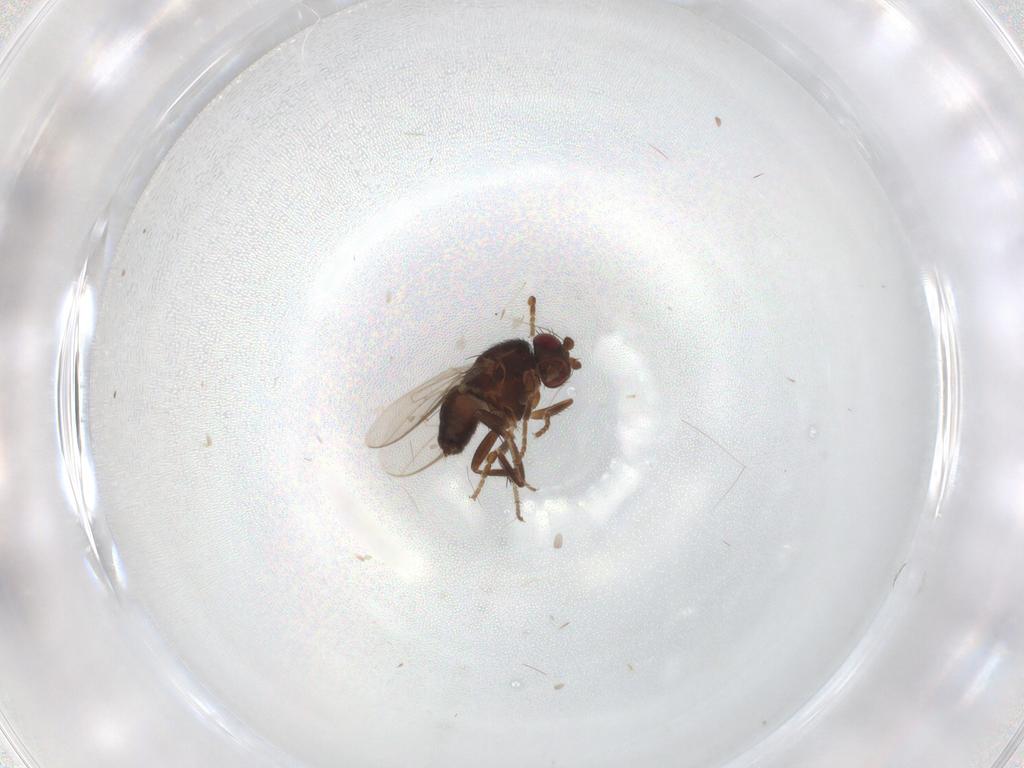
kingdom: Animalia
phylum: Arthropoda
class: Insecta
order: Diptera
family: Sphaeroceridae
